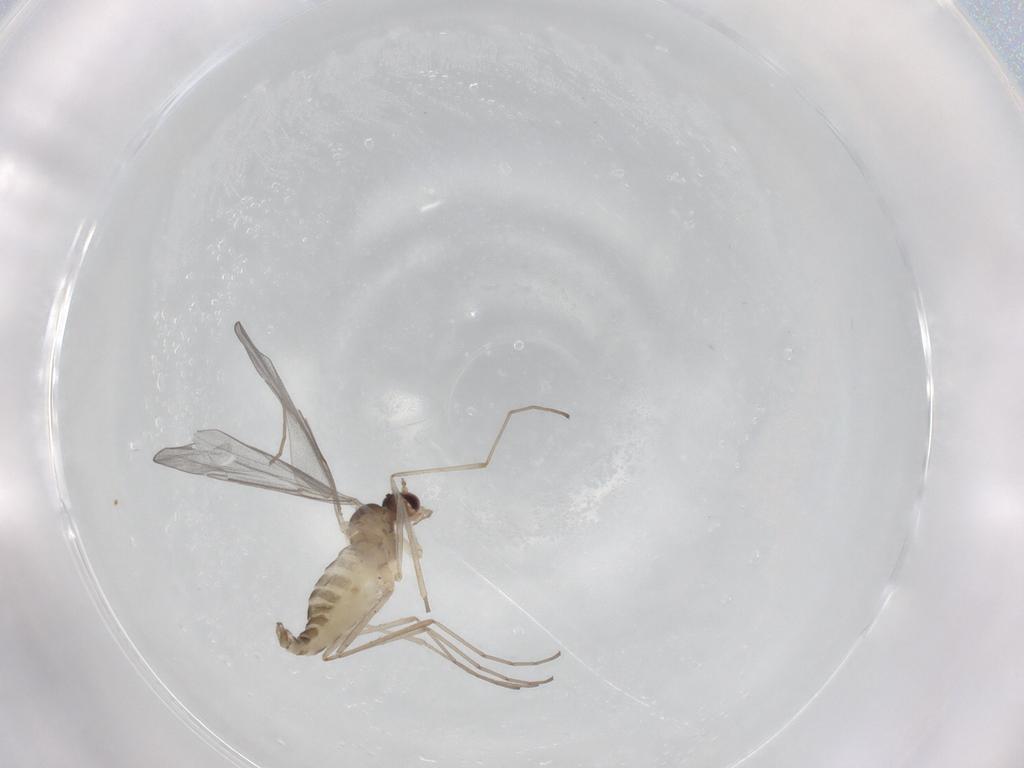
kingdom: Animalia
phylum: Arthropoda
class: Insecta
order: Diptera
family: Cecidomyiidae
